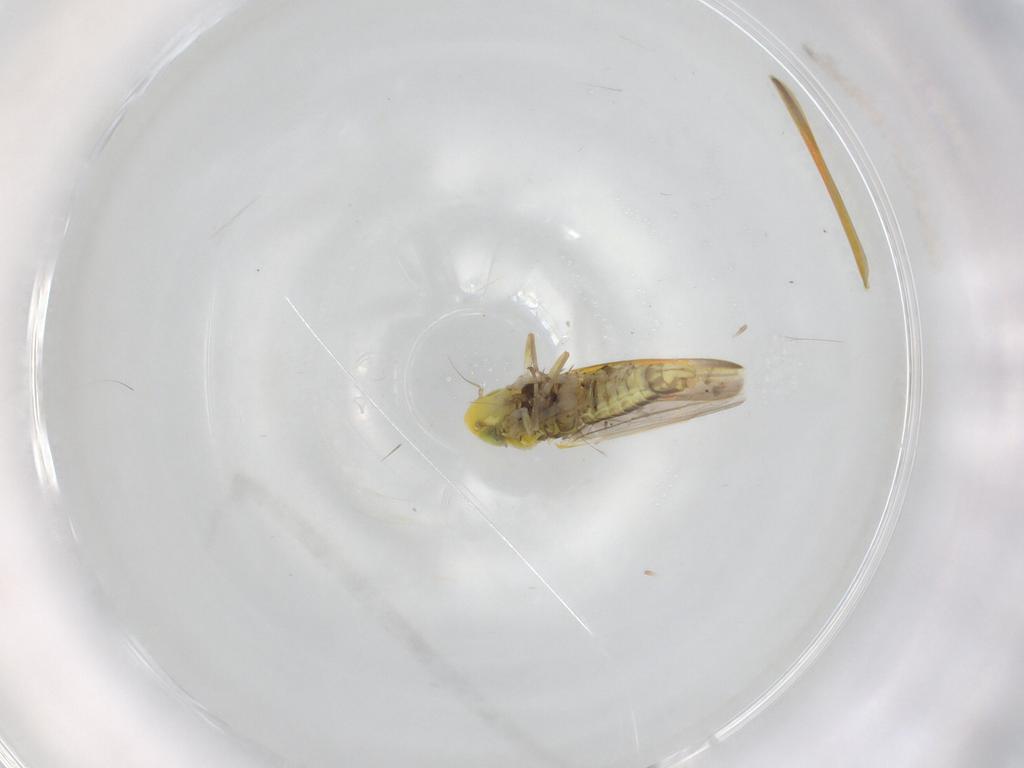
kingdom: Animalia
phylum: Arthropoda
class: Insecta
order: Hemiptera
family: Cicadellidae
